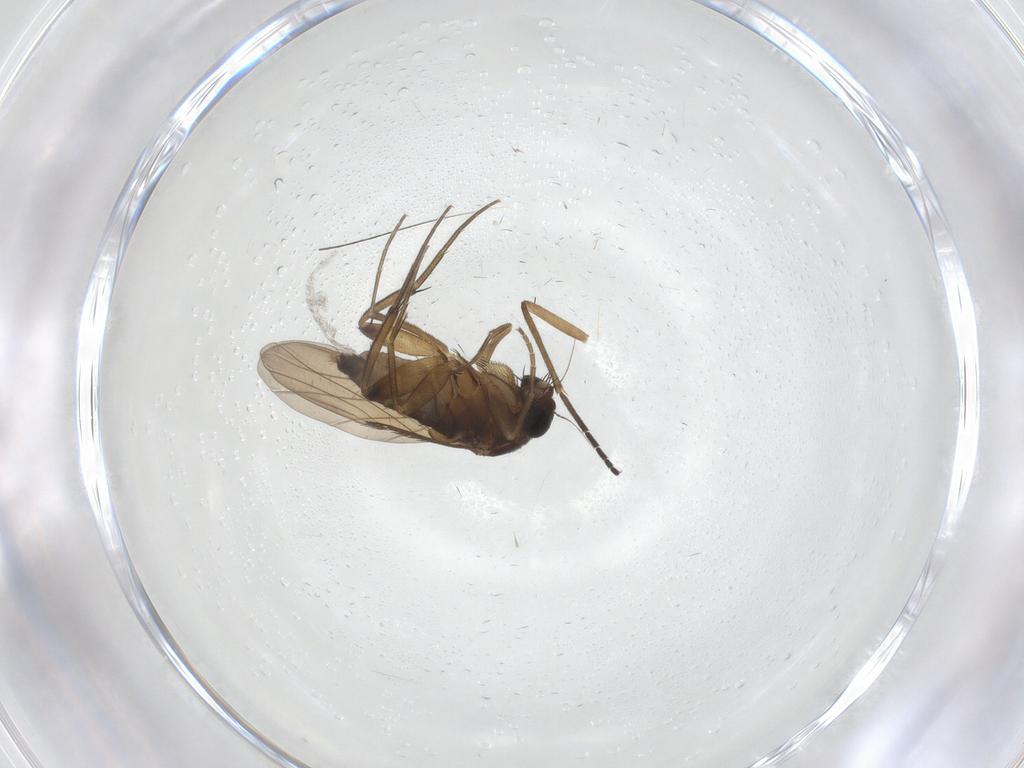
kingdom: Animalia
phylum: Arthropoda
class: Insecta
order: Diptera
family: Phoridae
